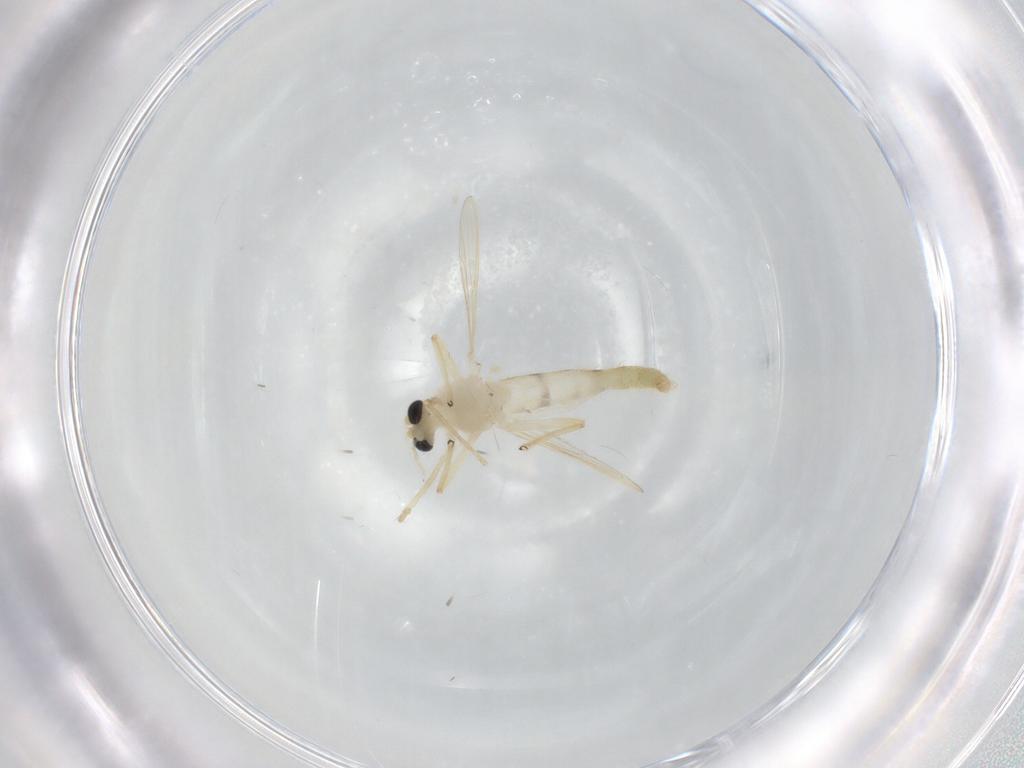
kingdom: Animalia
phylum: Arthropoda
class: Insecta
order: Diptera
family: Chironomidae
